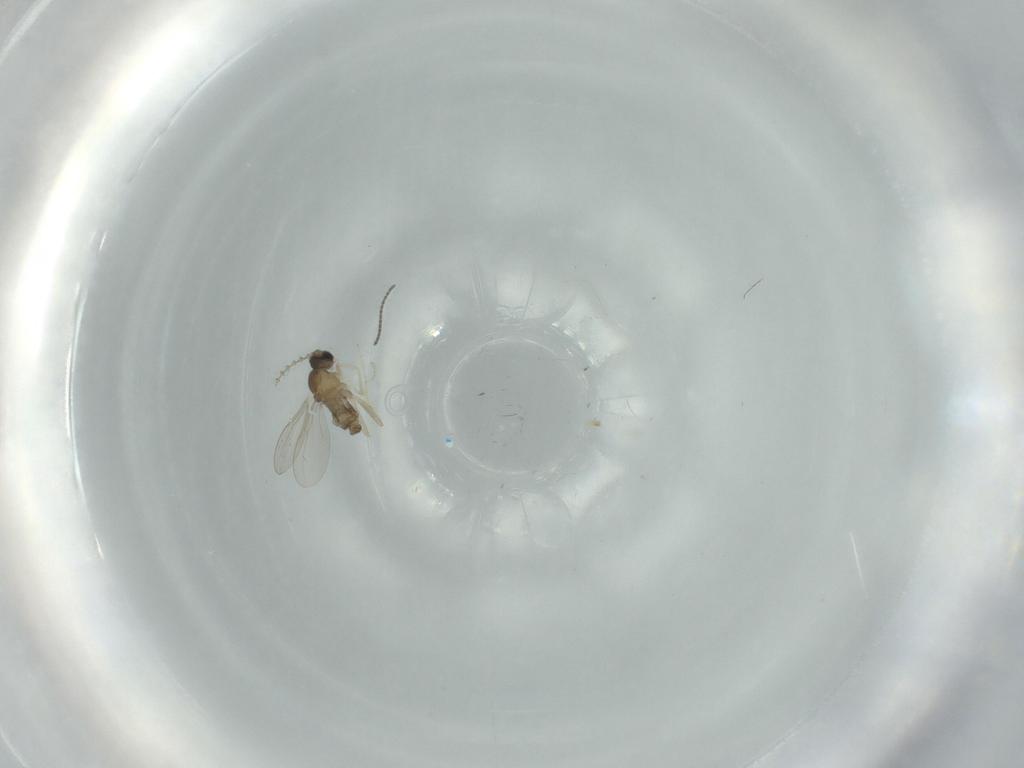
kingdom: Animalia
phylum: Arthropoda
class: Insecta
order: Diptera
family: Cecidomyiidae
